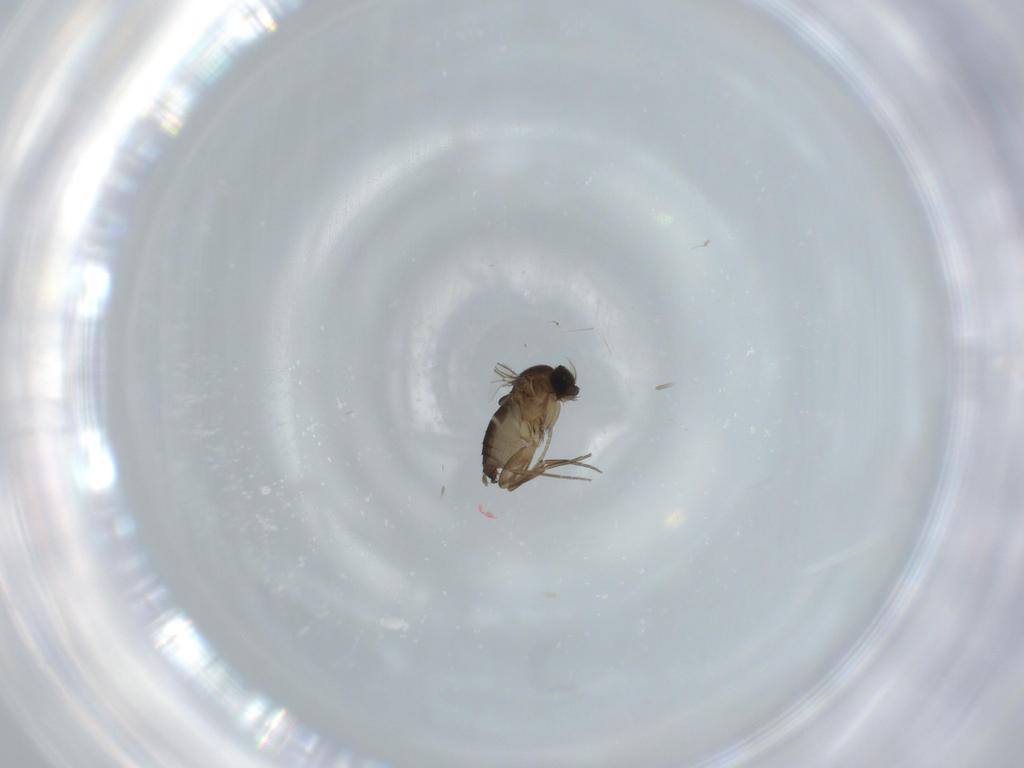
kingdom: Animalia
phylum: Arthropoda
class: Insecta
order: Diptera
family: Phoridae
